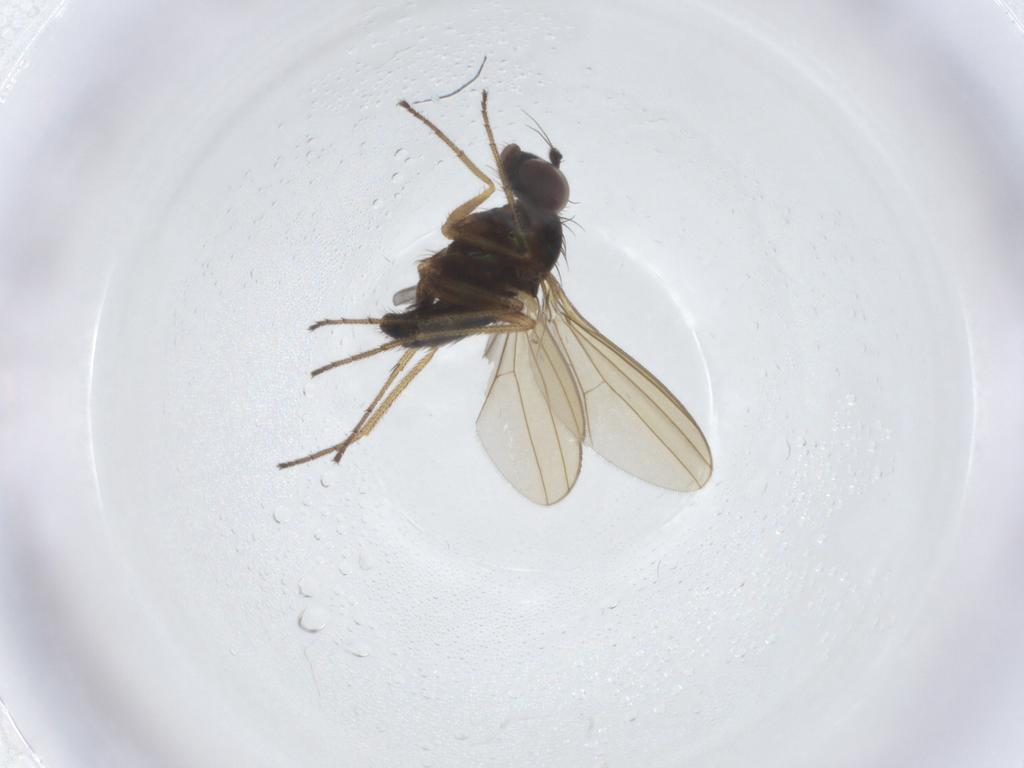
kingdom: Animalia
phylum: Arthropoda
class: Insecta
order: Diptera
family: Dolichopodidae
